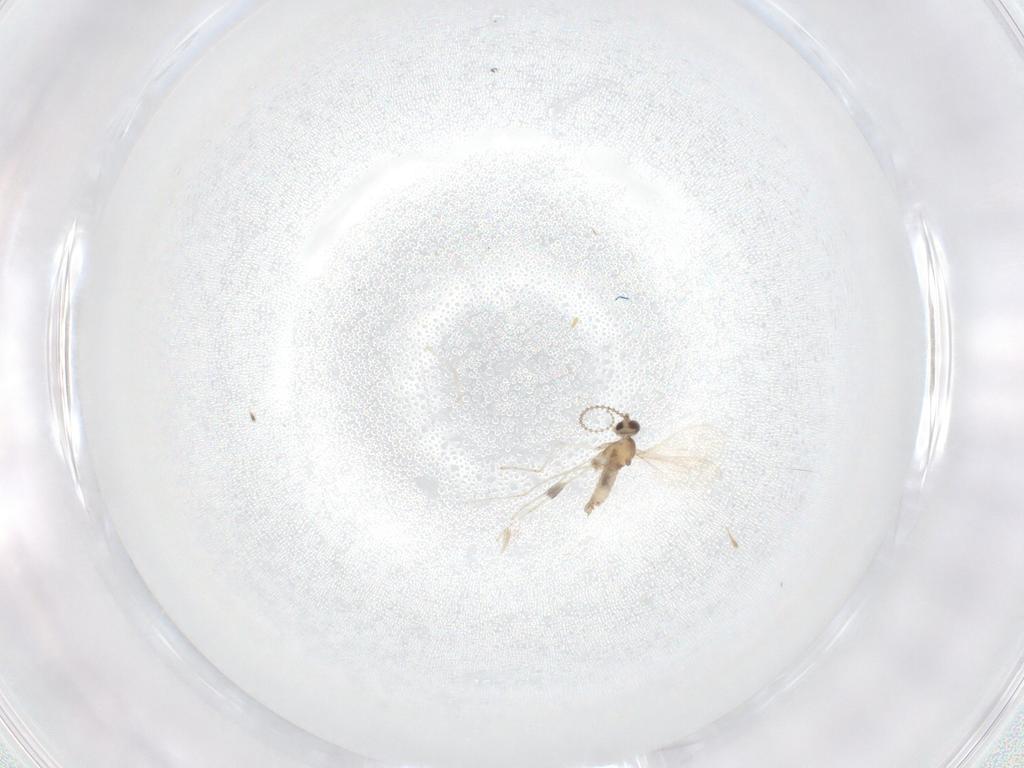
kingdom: Animalia
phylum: Arthropoda
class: Insecta
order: Diptera
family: Cecidomyiidae
